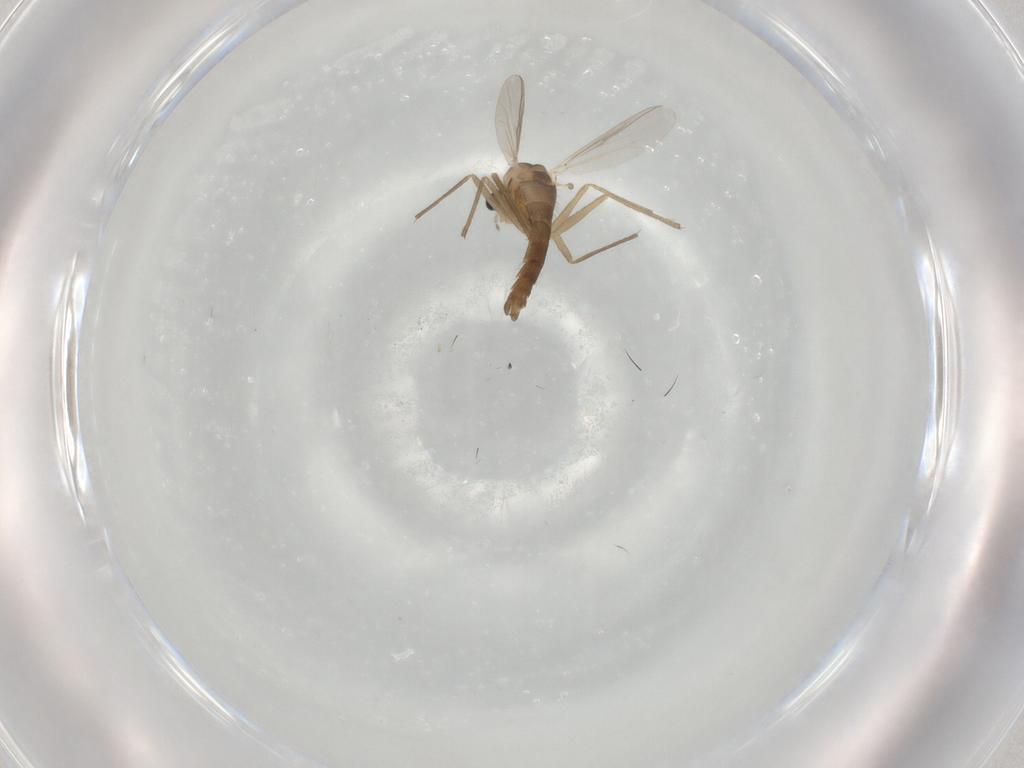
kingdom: Animalia
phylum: Arthropoda
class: Insecta
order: Diptera
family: Chironomidae
